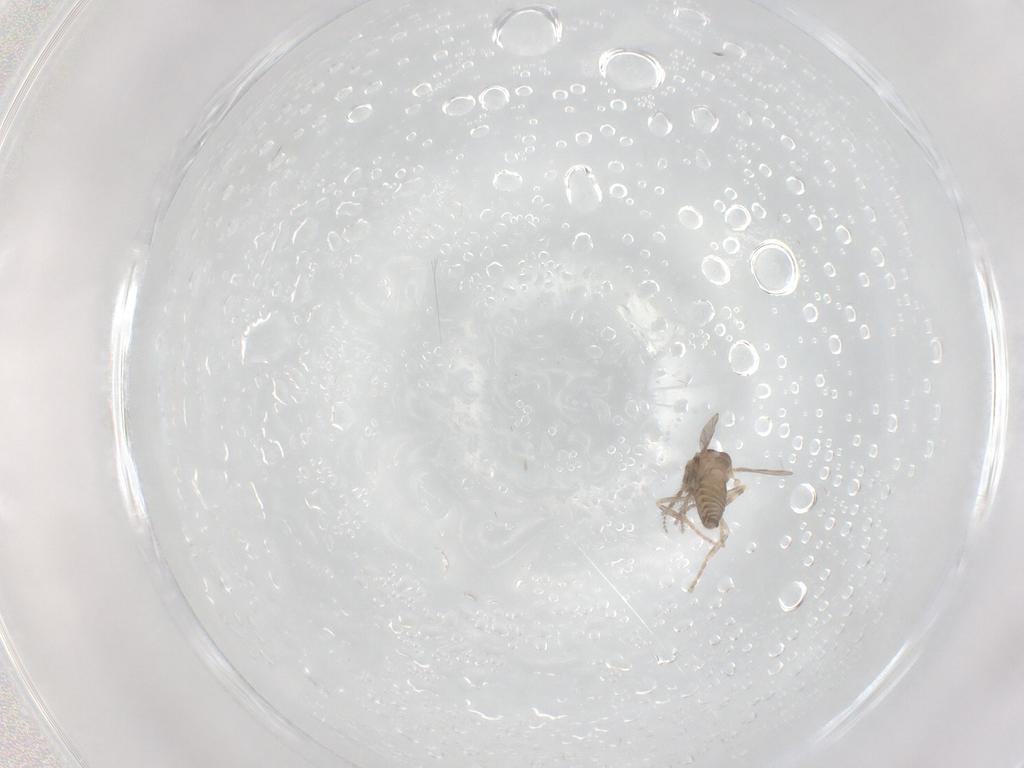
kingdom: Animalia
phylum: Arthropoda
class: Insecta
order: Diptera
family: Ceratopogonidae
